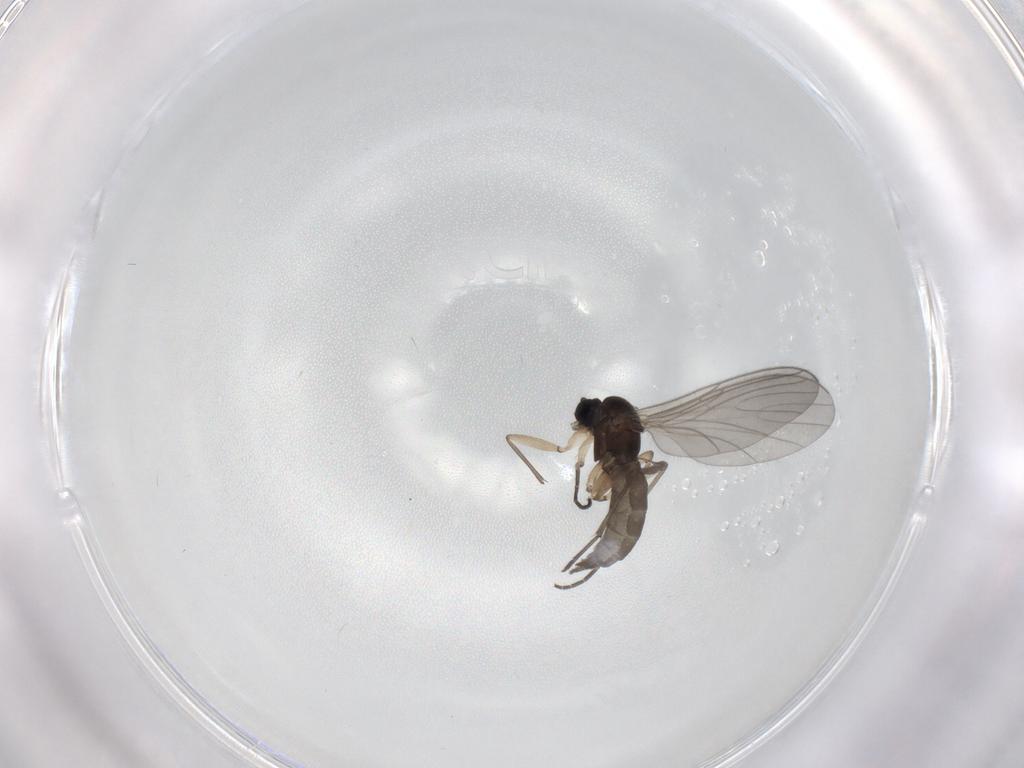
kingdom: Animalia
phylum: Arthropoda
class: Insecta
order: Diptera
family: Sciaridae
